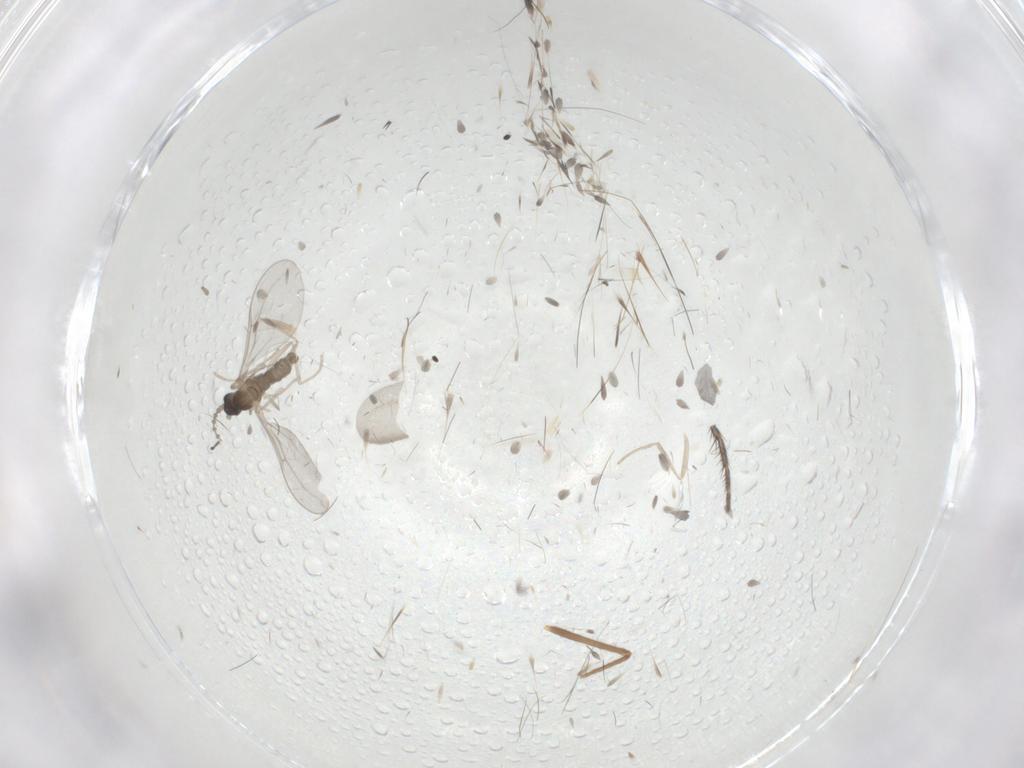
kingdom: Animalia
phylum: Arthropoda
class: Insecta
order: Diptera
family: Cecidomyiidae
